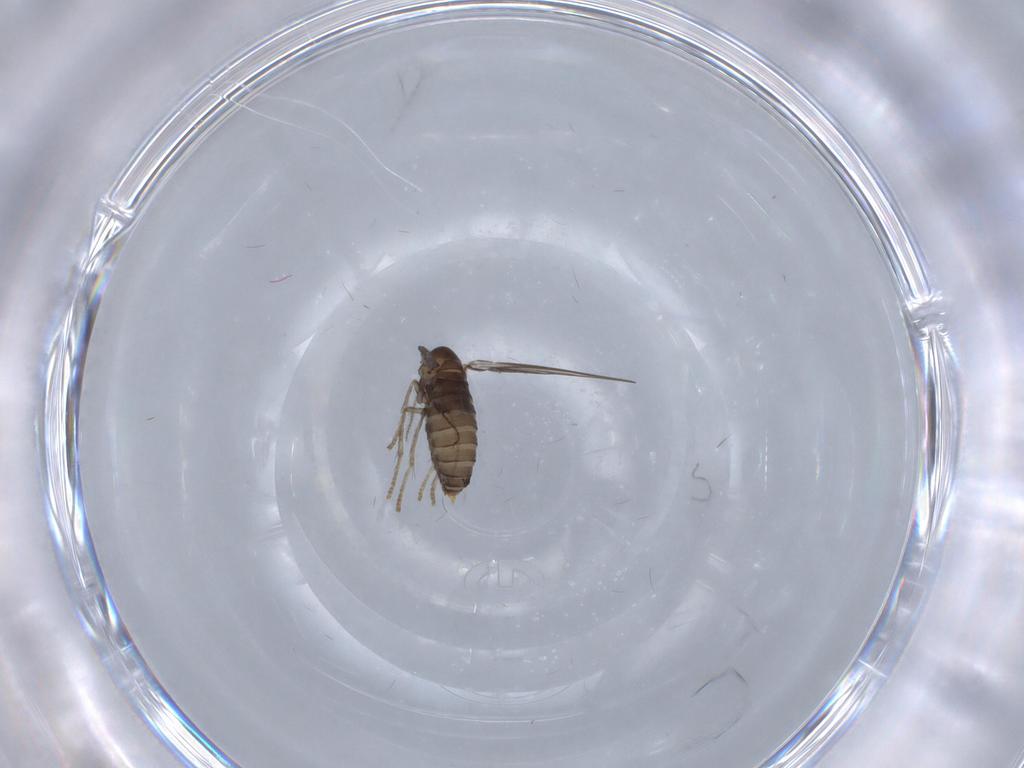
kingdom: Animalia
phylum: Arthropoda
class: Insecta
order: Diptera
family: Psychodidae
